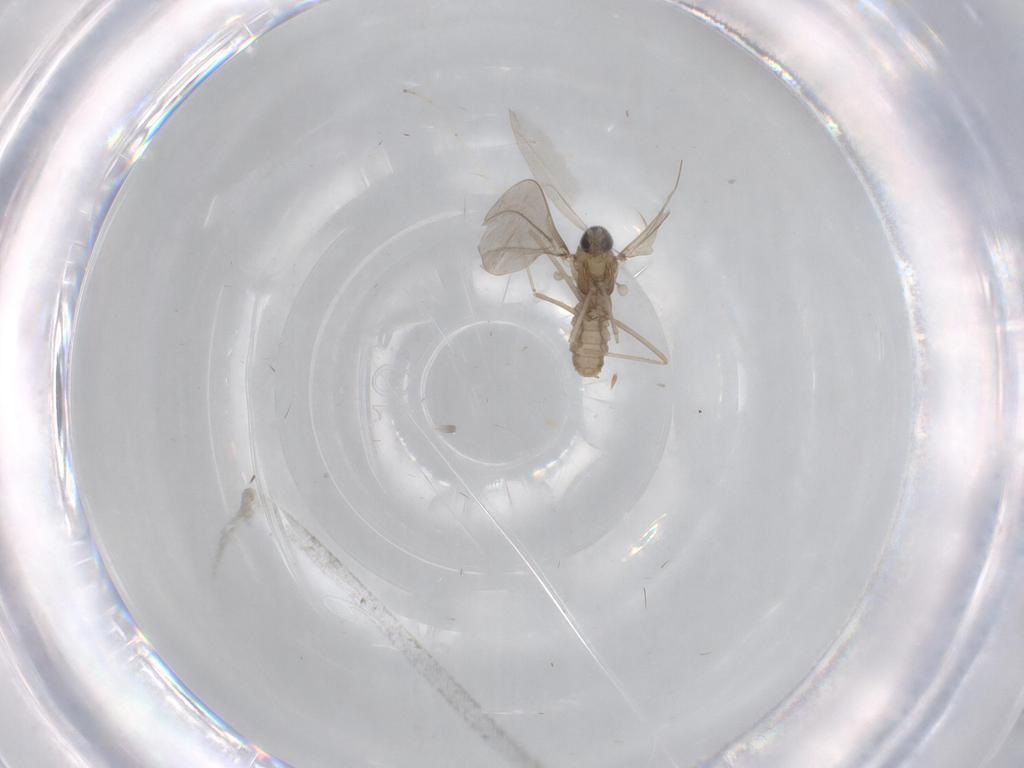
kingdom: Animalia
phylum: Arthropoda
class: Insecta
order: Diptera
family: Cecidomyiidae
